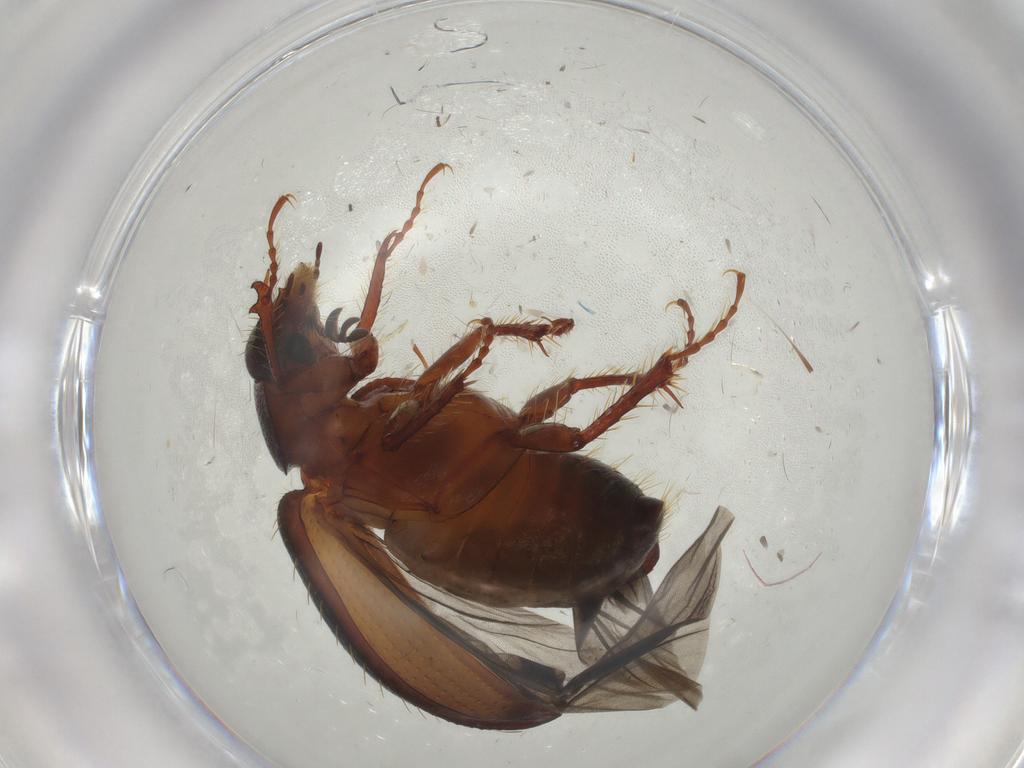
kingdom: Animalia
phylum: Arthropoda
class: Insecta
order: Coleoptera
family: Hybosoridae
